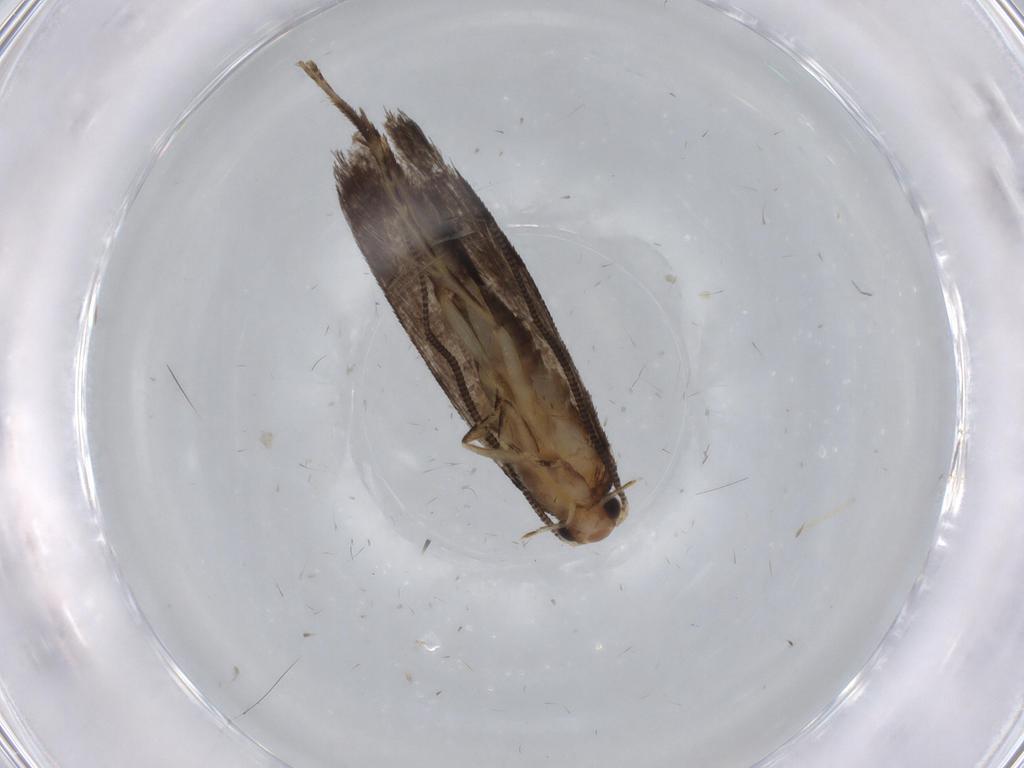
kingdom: Animalia
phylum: Arthropoda
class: Insecta
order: Lepidoptera
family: Tineidae
